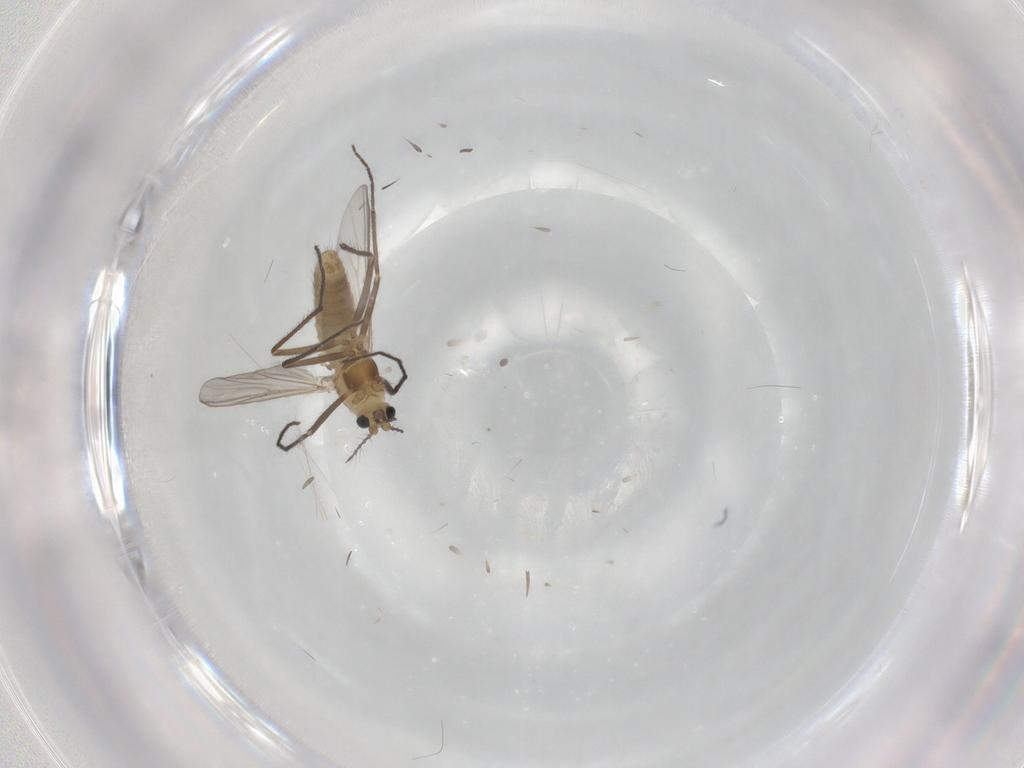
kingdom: Animalia
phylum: Arthropoda
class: Insecta
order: Diptera
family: Chironomidae
